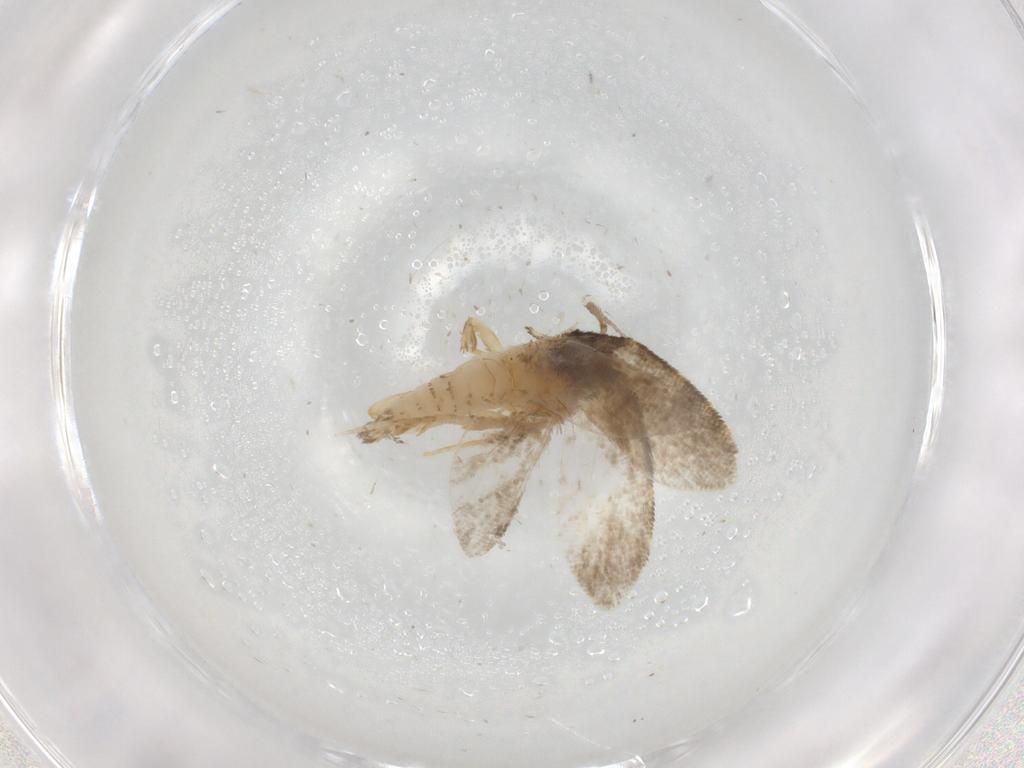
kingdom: Animalia
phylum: Arthropoda
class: Insecta
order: Lepidoptera
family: Psychidae
